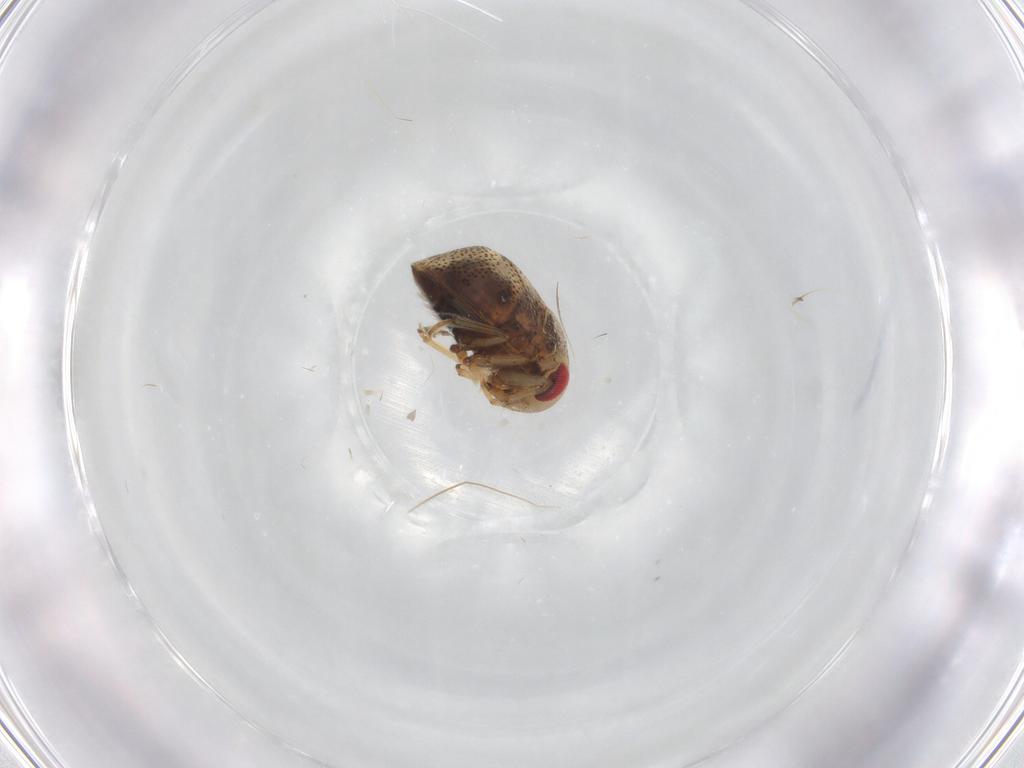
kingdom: Animalia
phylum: Arthropoda
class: Insecta
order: Hemiptera
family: Pleidae
